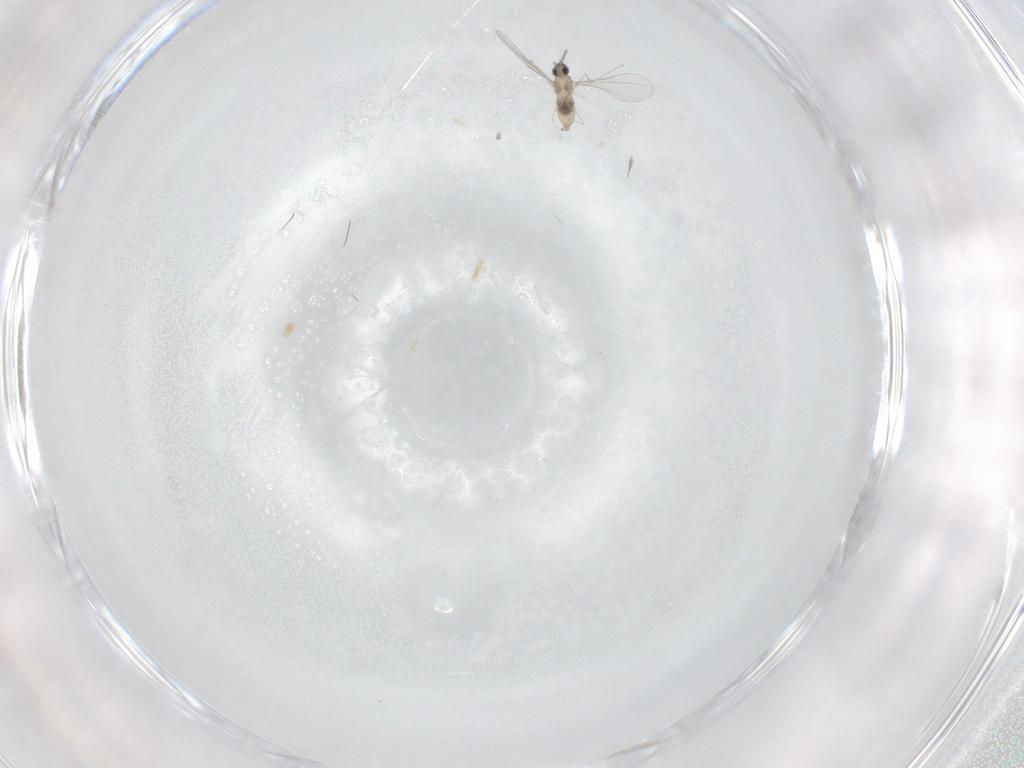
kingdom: Animalia
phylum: Arthropoda
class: Insecta
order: Diptera
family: Cecidomyiidae
